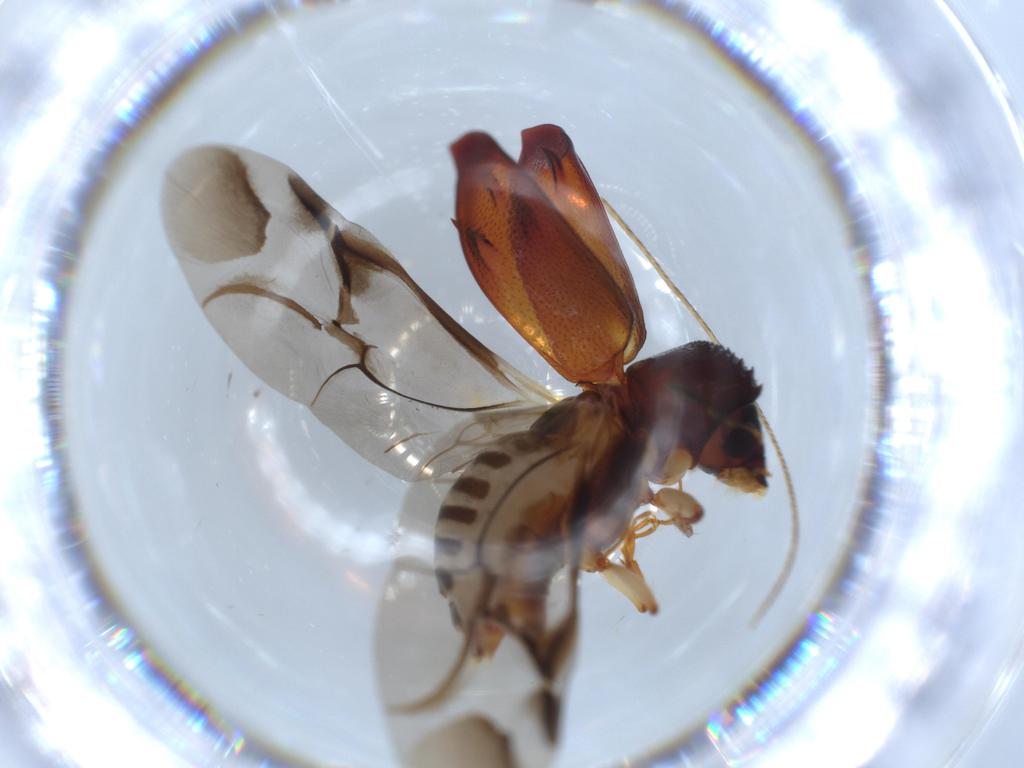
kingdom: Animalia
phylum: Arthropoda
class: Insecta
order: Coleoptera
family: Bostrichidae
